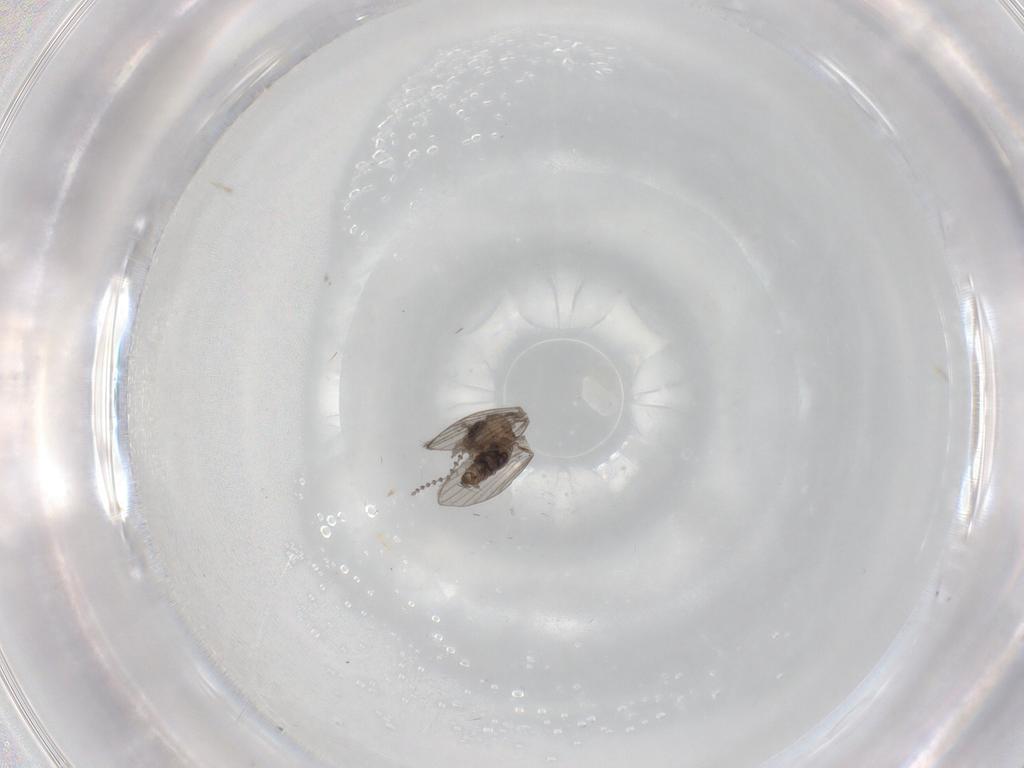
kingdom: Animalia
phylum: Arthropoda
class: Insecta
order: Diptera
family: Psychodidae
